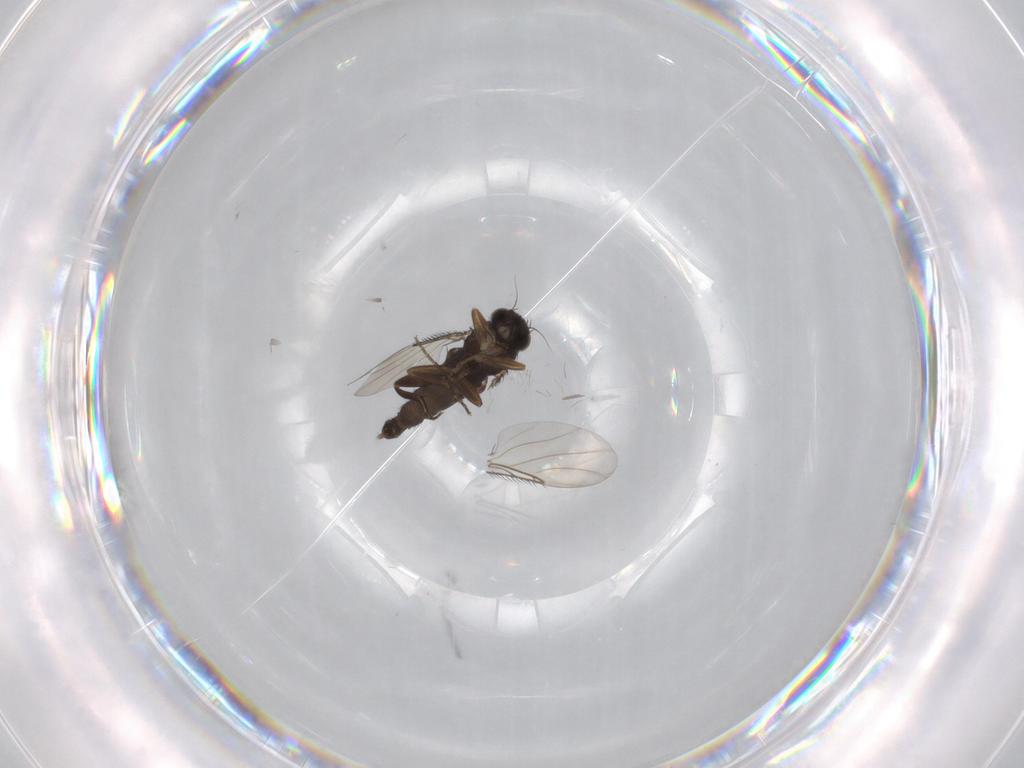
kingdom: Animalia
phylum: Arthropoda
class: Insecta
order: Diptera
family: Phoridae
